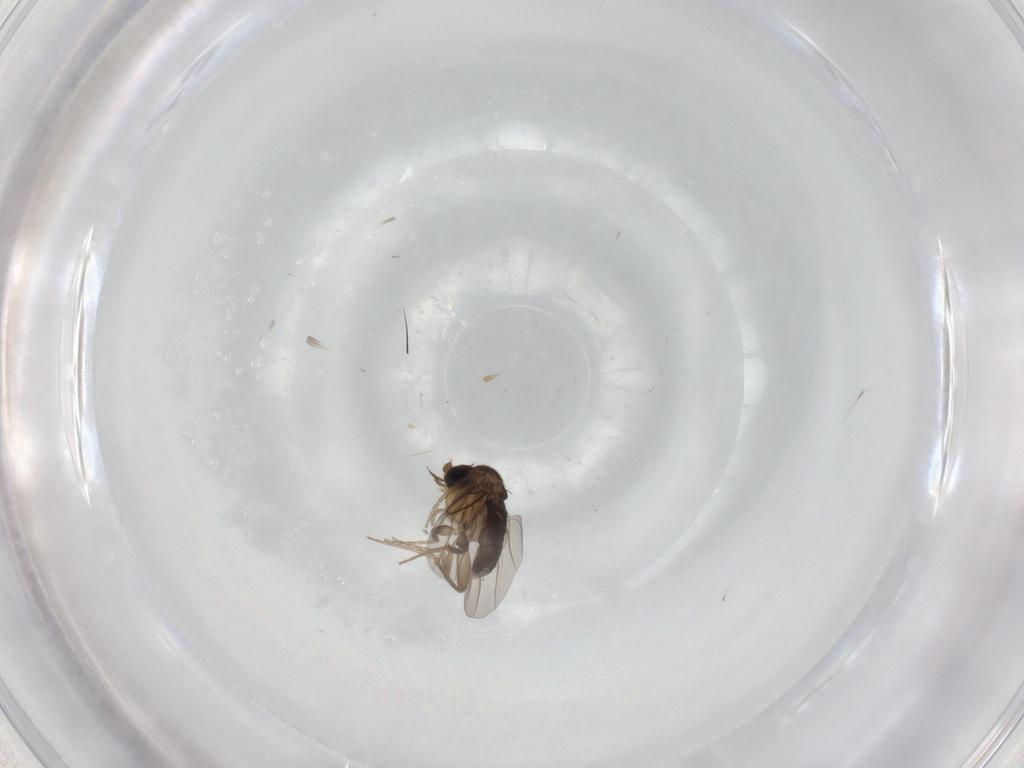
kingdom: Animalia
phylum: Arthropoda
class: Insecta
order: Diptera
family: Phoridae
